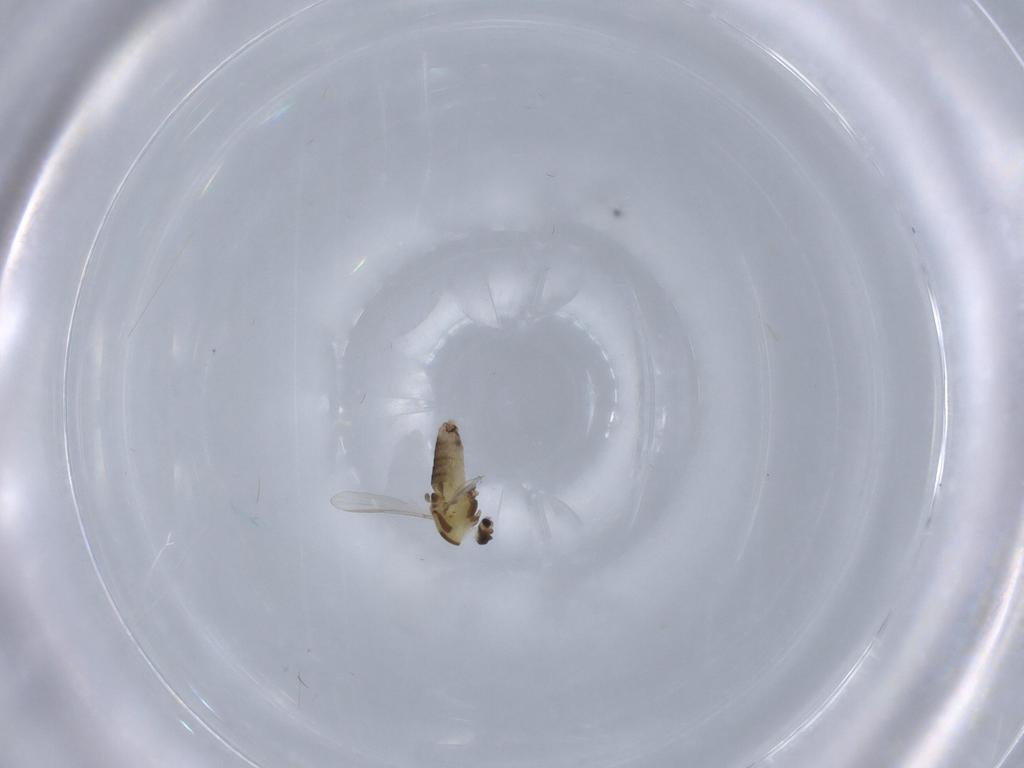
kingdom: Animalia
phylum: Arthropoda
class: Insecta
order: Diptera
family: Chironomidae
